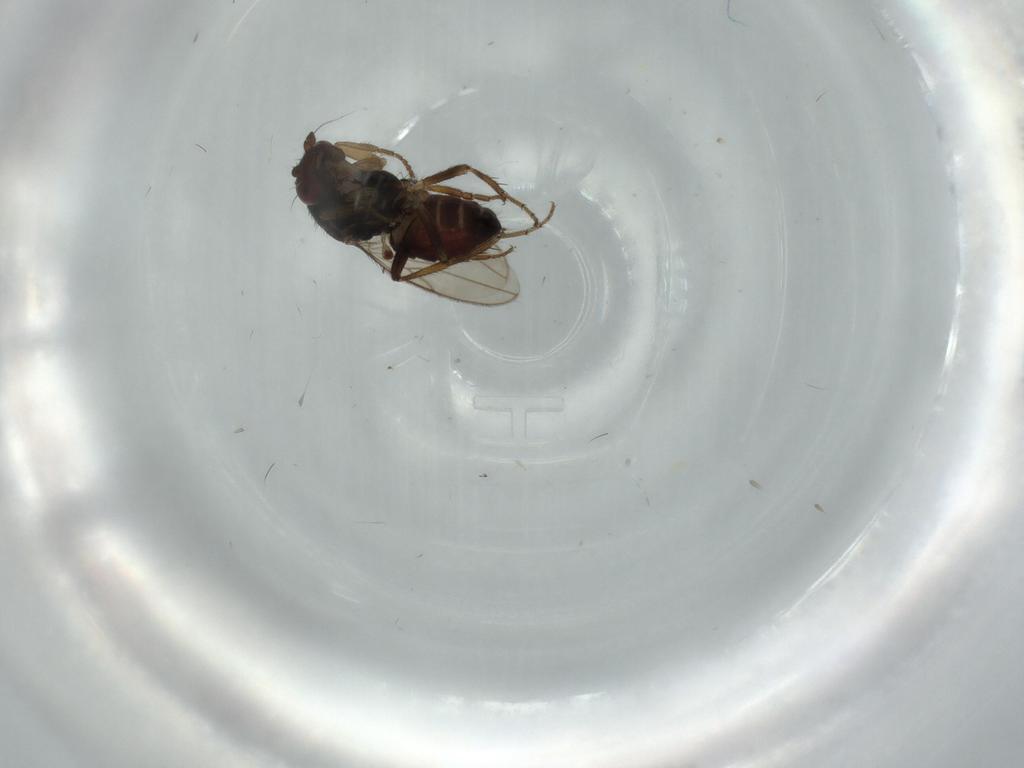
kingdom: Animalia
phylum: Arthropoda
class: Insecta
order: Diptera
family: Sphaeroceridae
